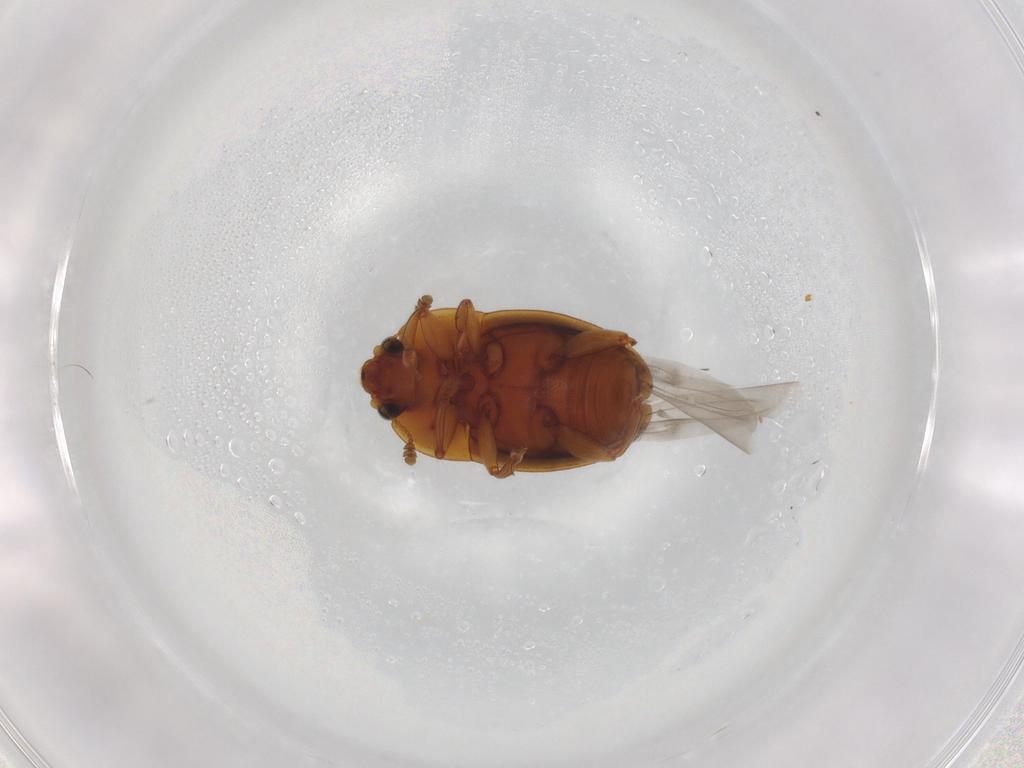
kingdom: Animalia
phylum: Arthropoda
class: Insecta
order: Coleoptera
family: Nitidulidae
